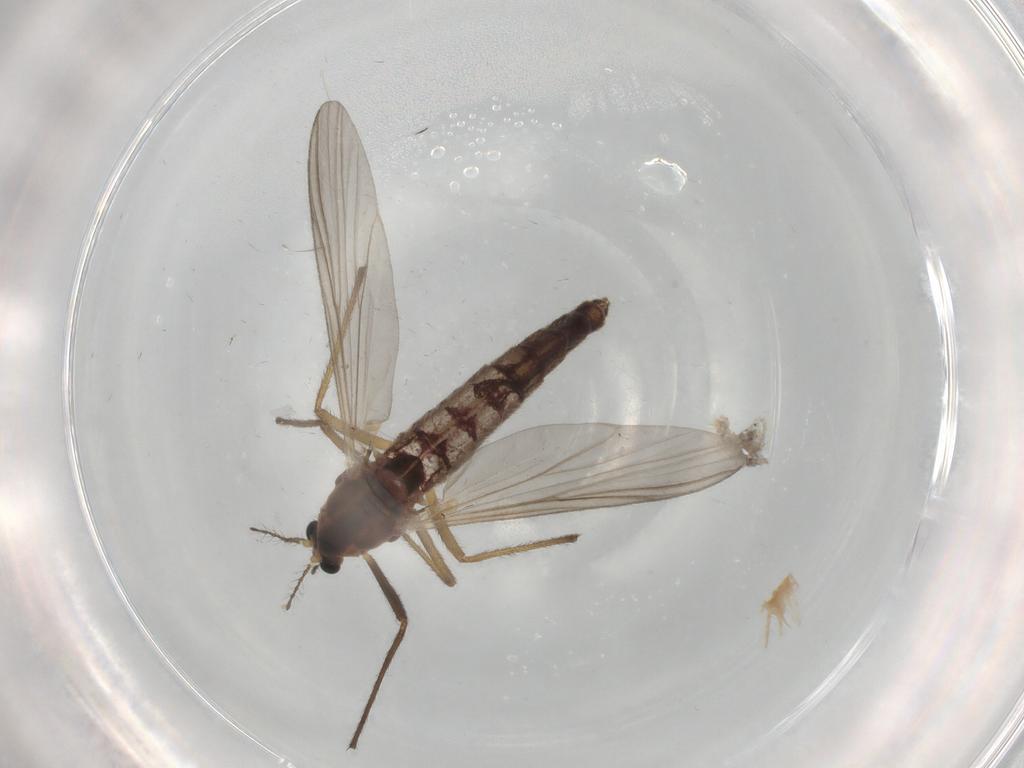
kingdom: Animalia
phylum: Arthropoda
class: Insecta
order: Diptera
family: Chironomidae
